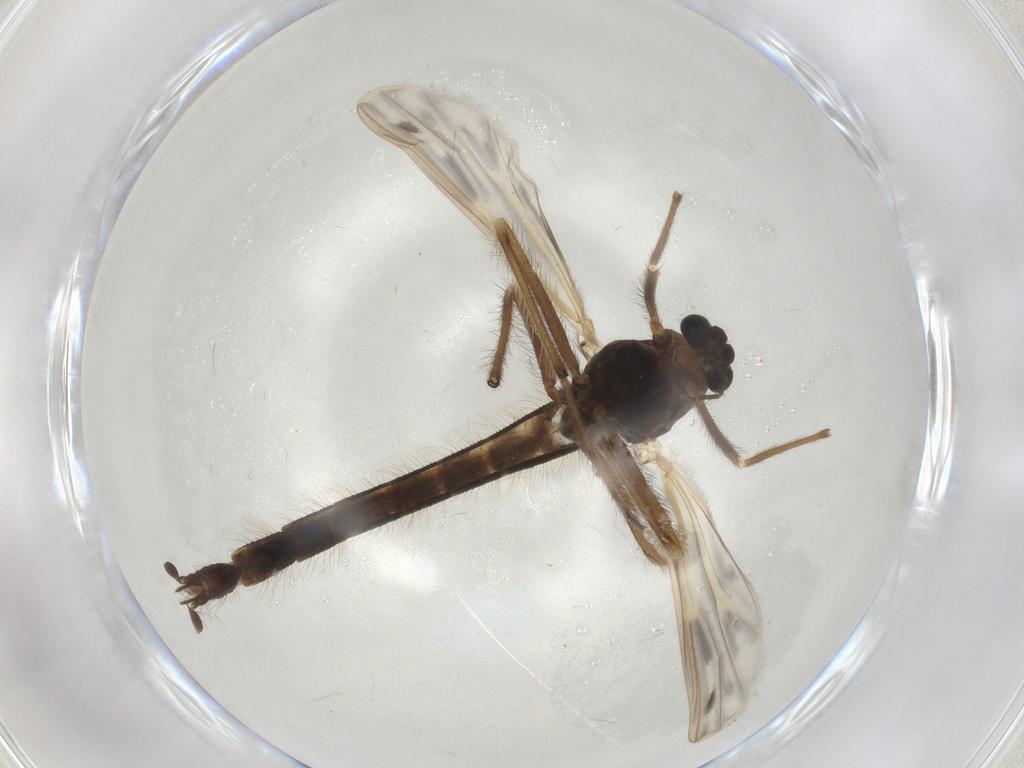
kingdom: Animalia
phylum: Arthropoda
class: Insecta
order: Diptera
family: Chironomidae
